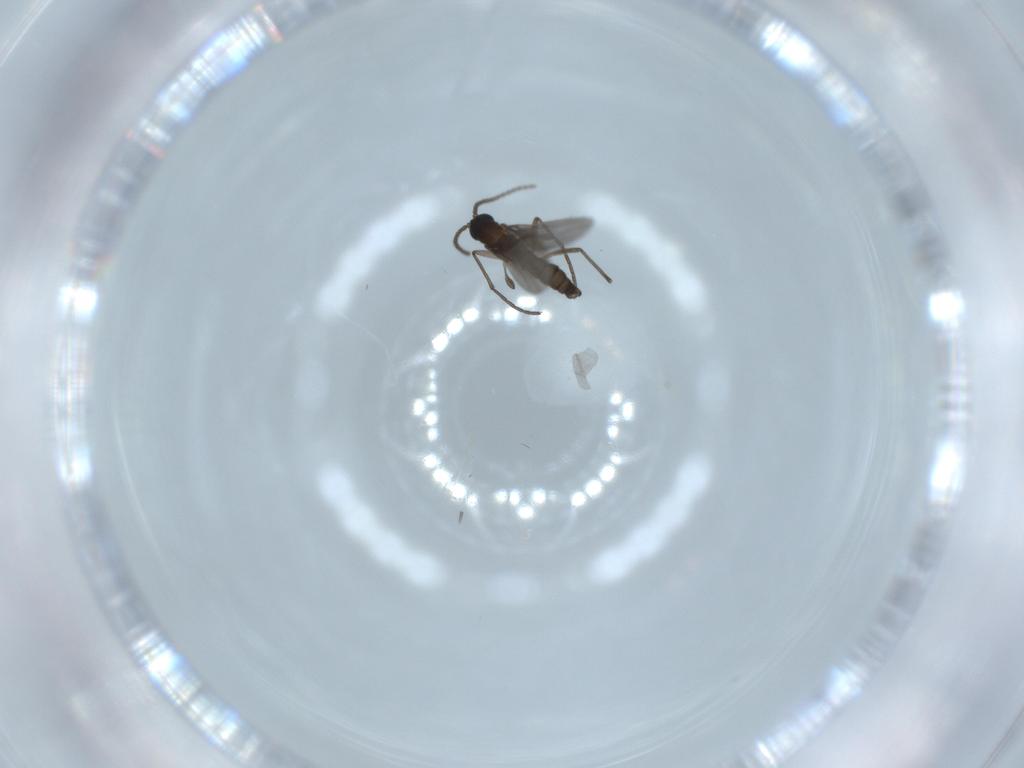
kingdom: Animalia
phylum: Arthropoda
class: Insecta
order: Diptera
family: Sciaridae
